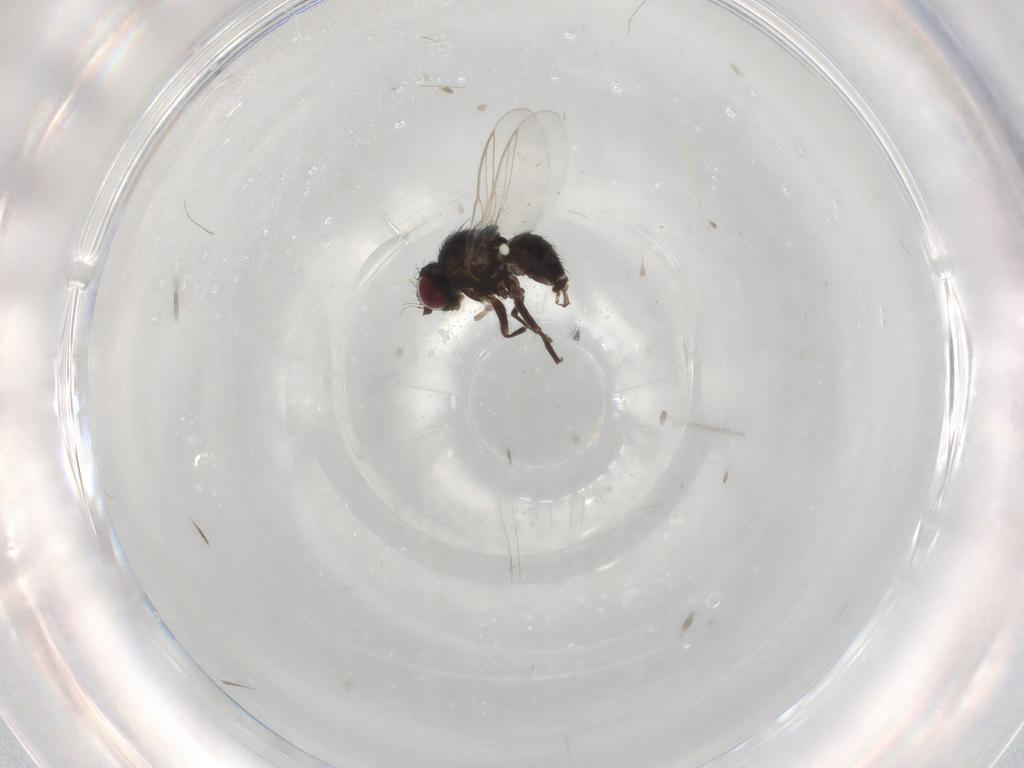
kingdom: Animalia
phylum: Arthropoda
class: Insecta
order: Diptera
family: Agromyzidae
